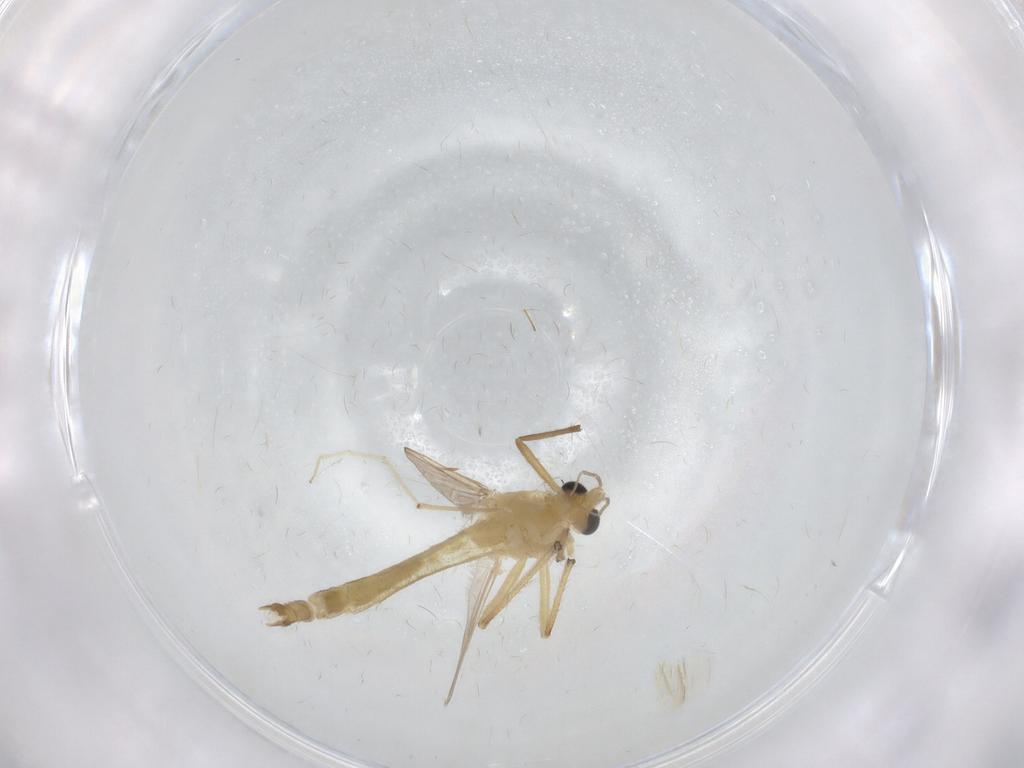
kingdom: Animalia
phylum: Arthropoda
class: Insecta
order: Diptera
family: Chironomidae
